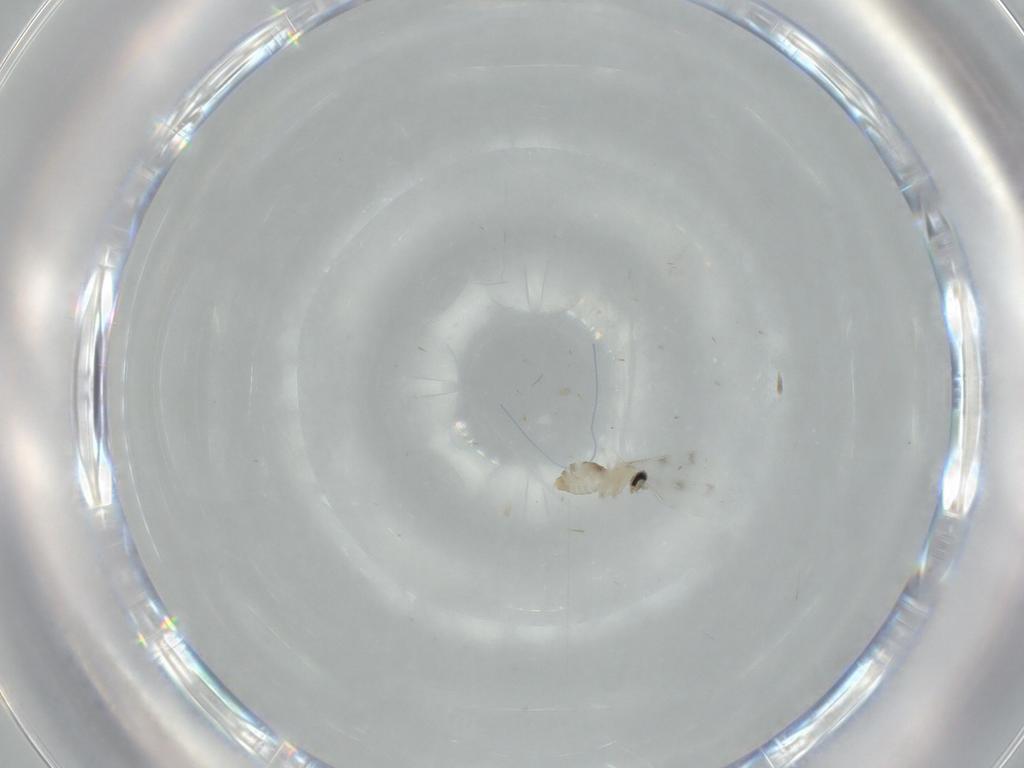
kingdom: Animalia
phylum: Arthropoda
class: Insecta
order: Diptera
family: Cecidomyiidae
